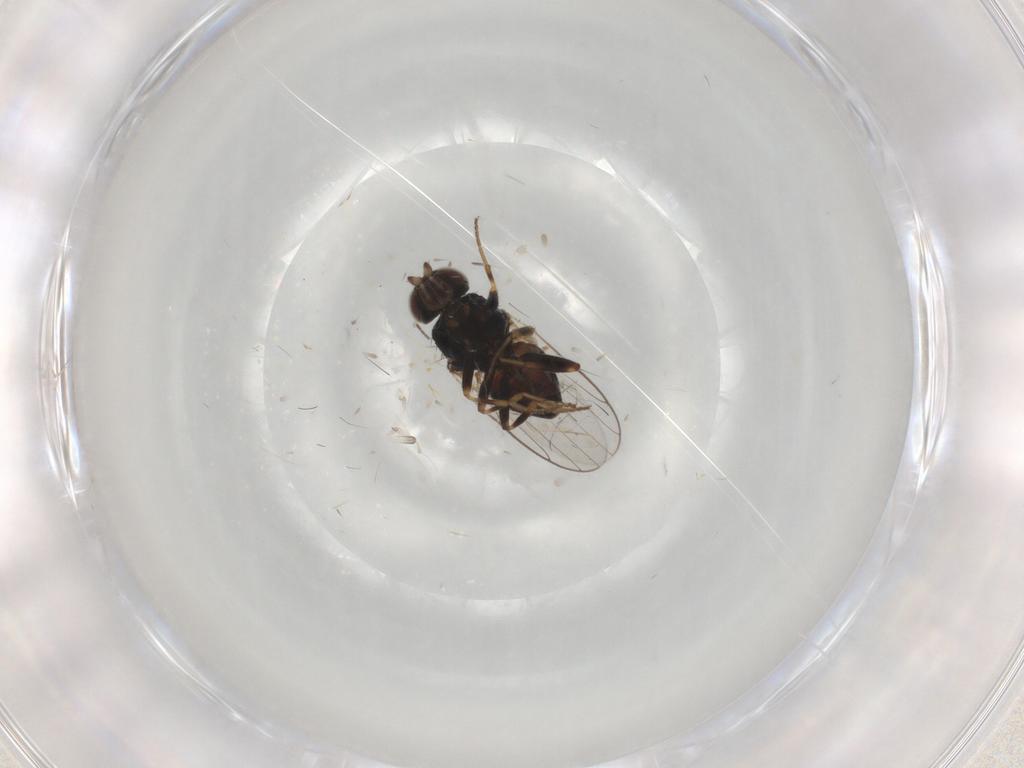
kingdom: Animalia
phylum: Arthropoda
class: Insecta
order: Diptera
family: Chloropidae
